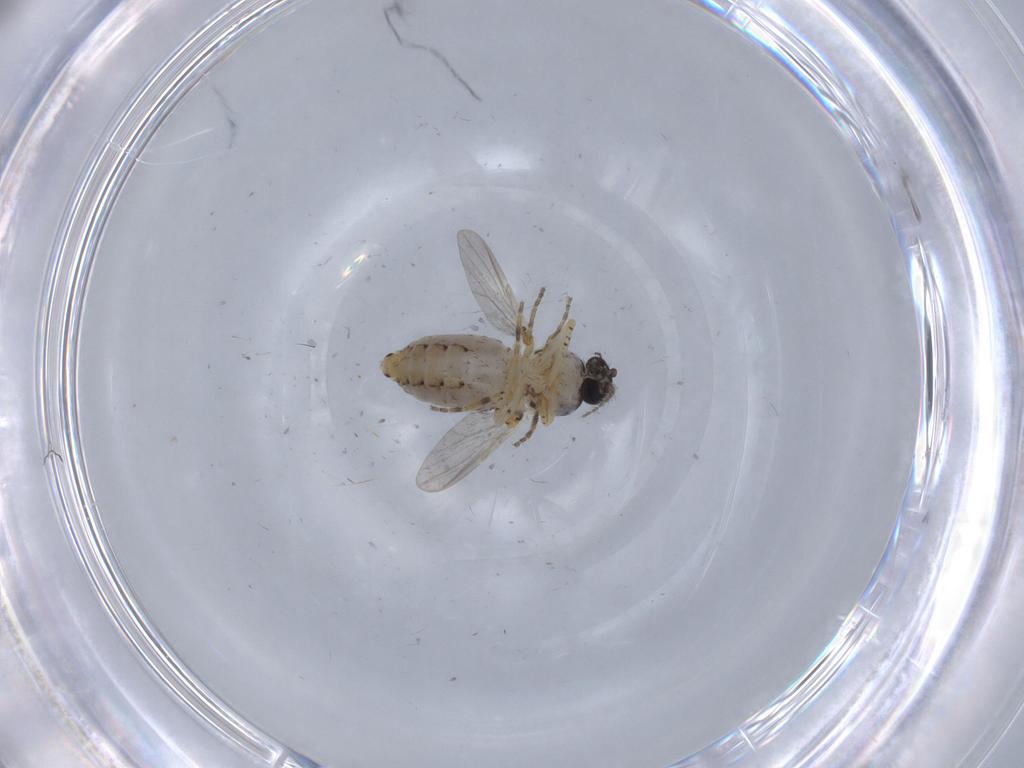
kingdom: Animalia
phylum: Arthropoda
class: Insecta
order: Diptera
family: Ceratopogonidae
